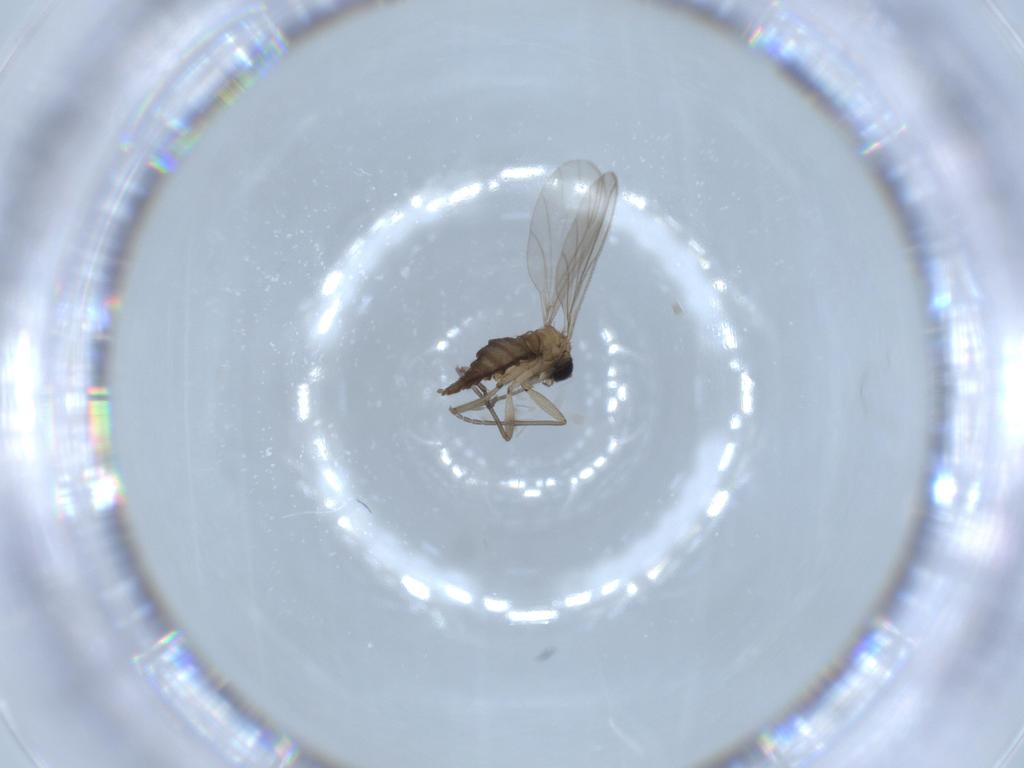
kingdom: Animalia
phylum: Arthropoda
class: Insecta
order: Diptera
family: Sciaridae
